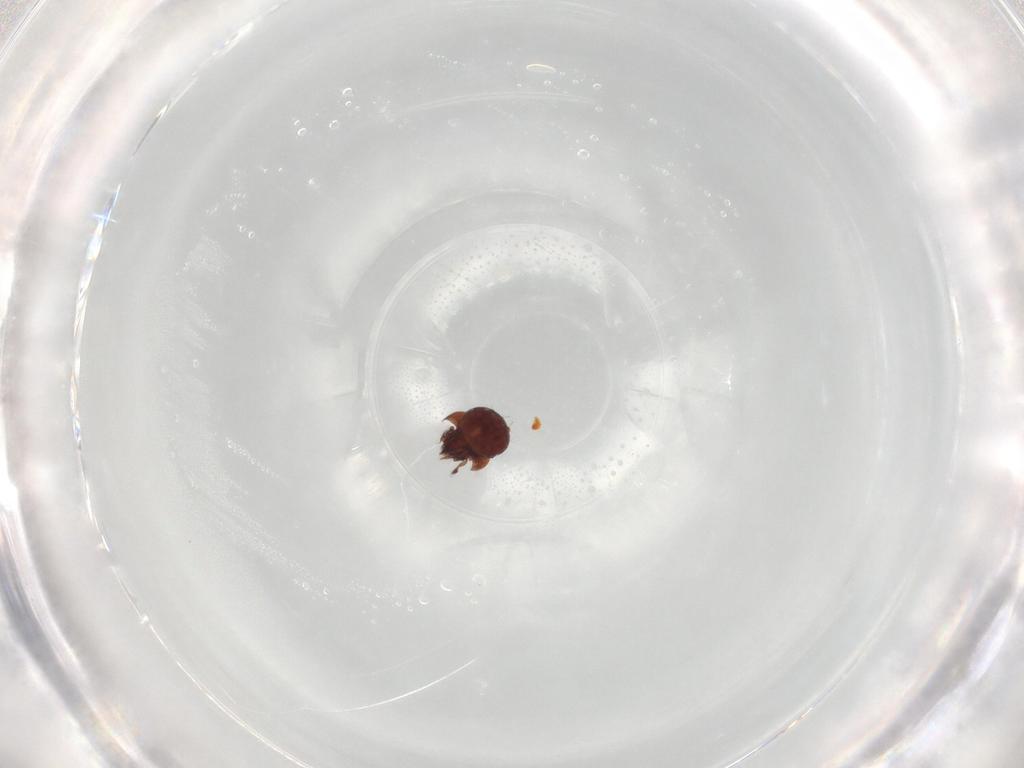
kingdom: Animalia
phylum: Arthropoda
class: Arachnida
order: Sarcoptiformes
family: Phenopelopidae
